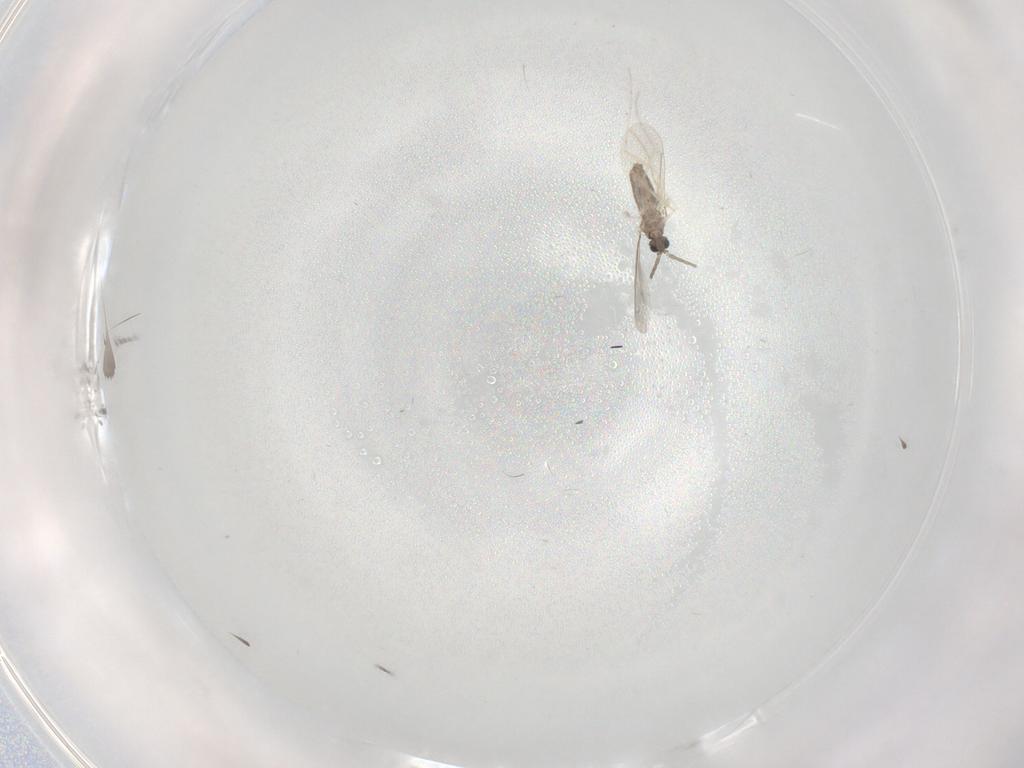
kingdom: Animalia
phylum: Arthropoda
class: Insecta
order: Diptera
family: Cecidomyiidae
